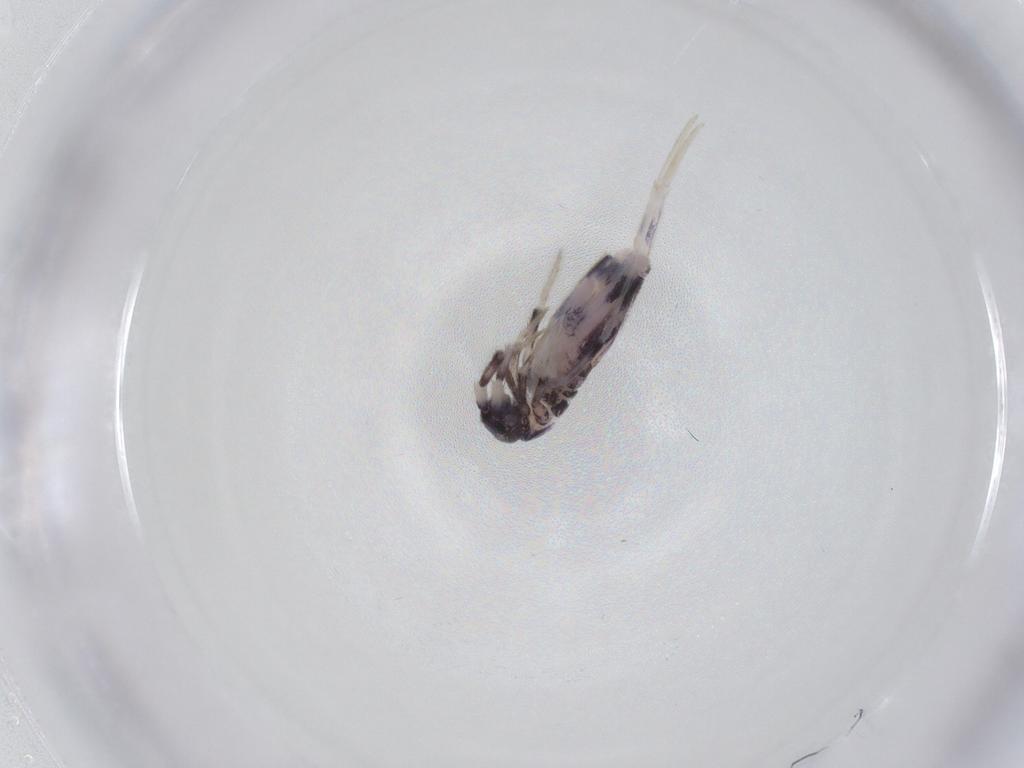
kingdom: Animalia
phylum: Arthropoda
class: Collembola
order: Entomobryomorpha
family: Entomobryidae
